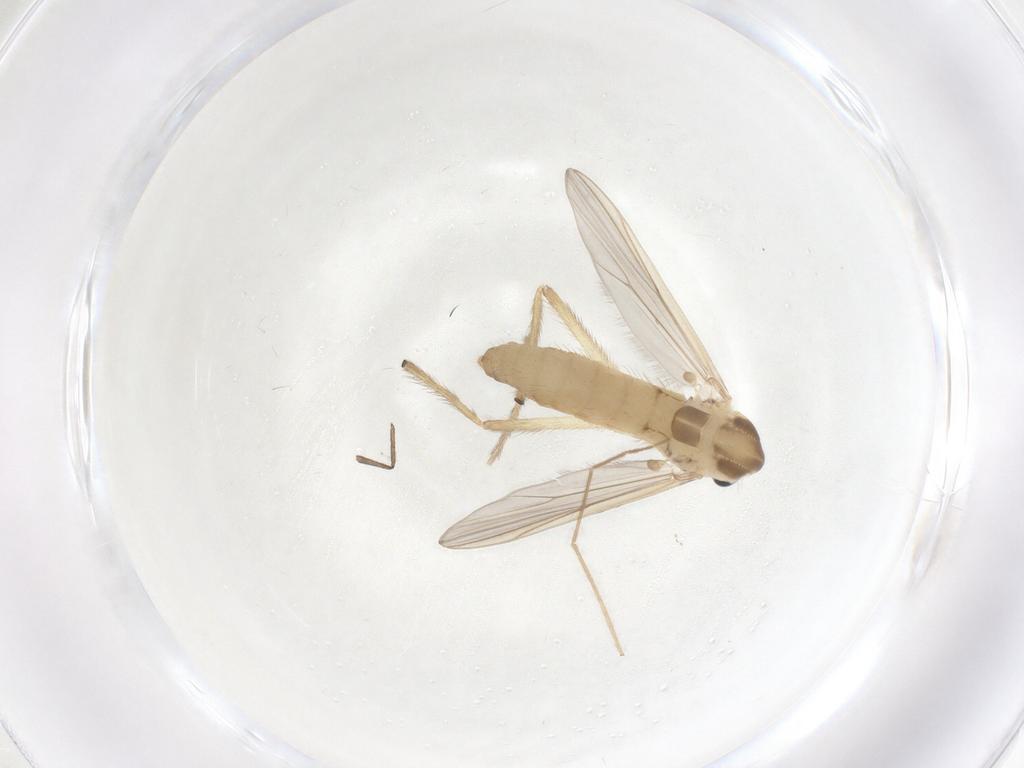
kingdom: Animalia
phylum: Arthropoda
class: Insecta
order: Diptera
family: Chironomidae
